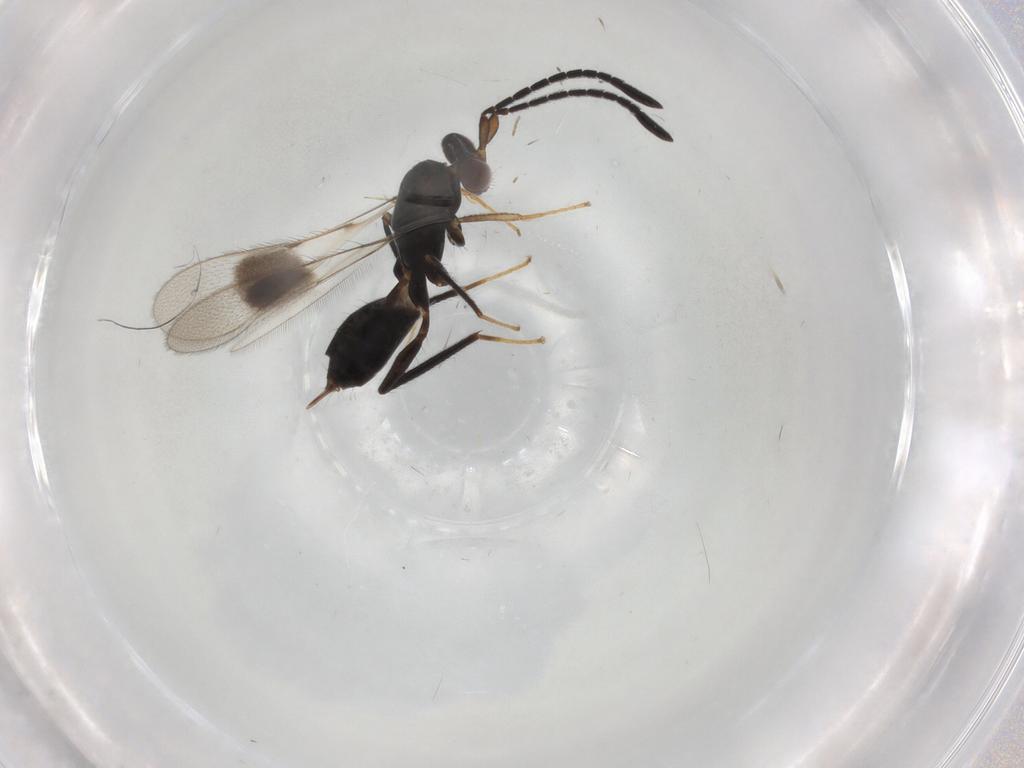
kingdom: Animalia
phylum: Arthropoda
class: Insecta
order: Hymenoptera
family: Mymaridae
